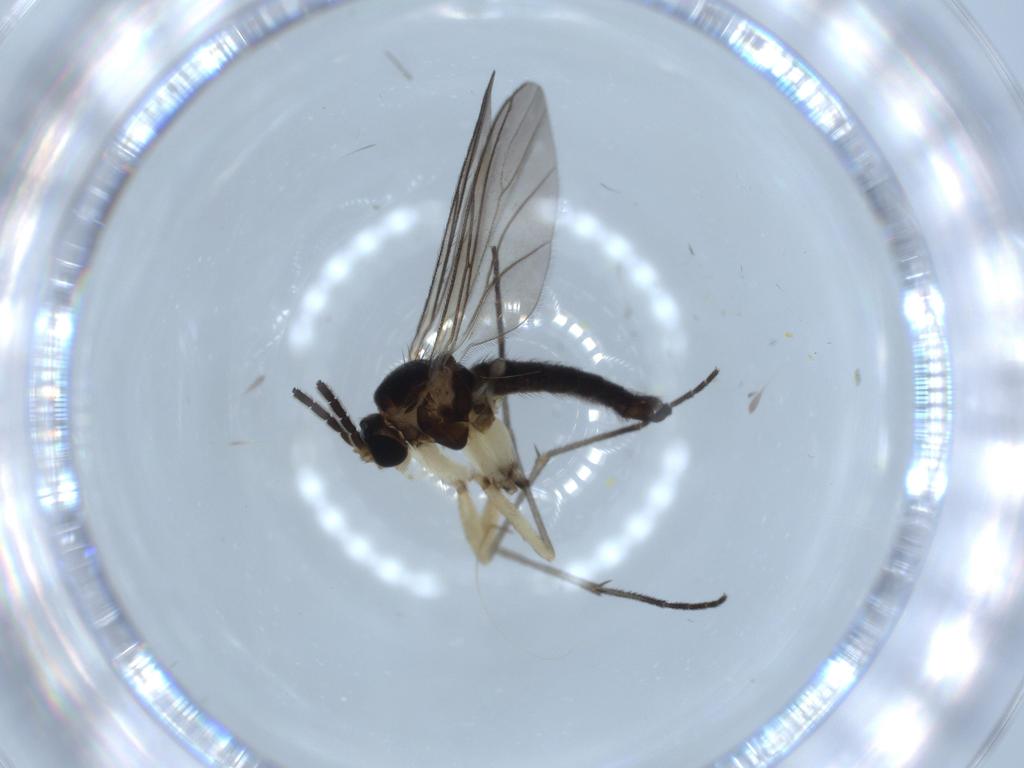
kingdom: Animalia
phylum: Arthropoda
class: Insecta
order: Diptera
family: Sciaridae
